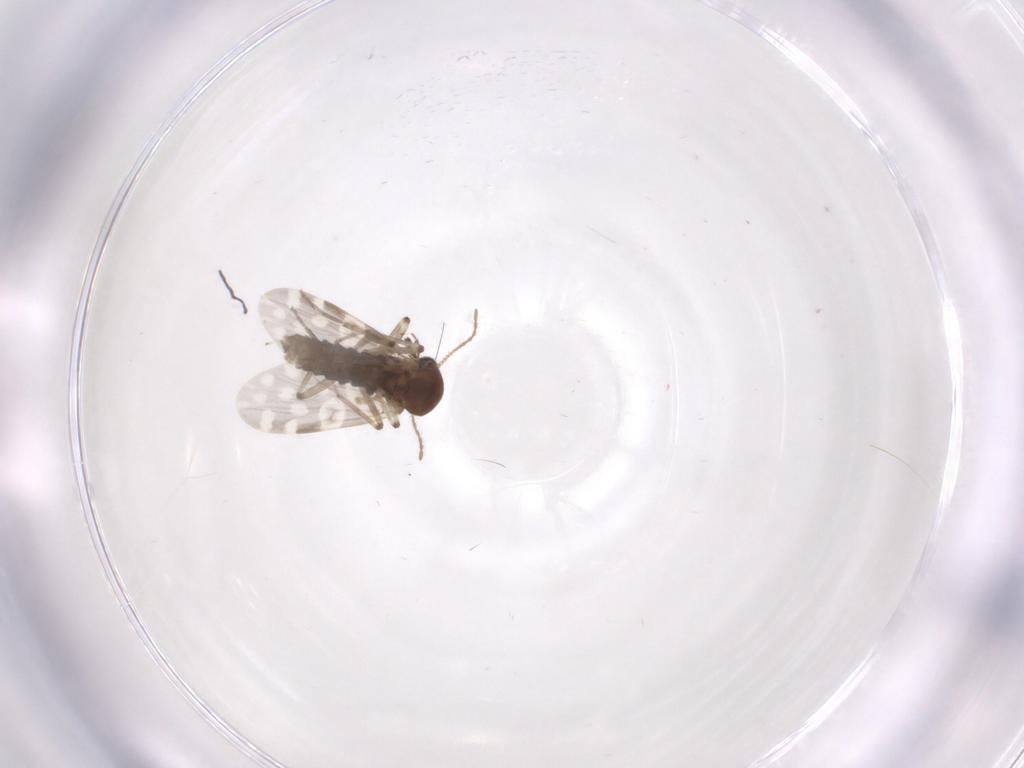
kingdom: Animalia
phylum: Arthropoda
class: Insecta
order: Diptera
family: Cecidomyiidae
